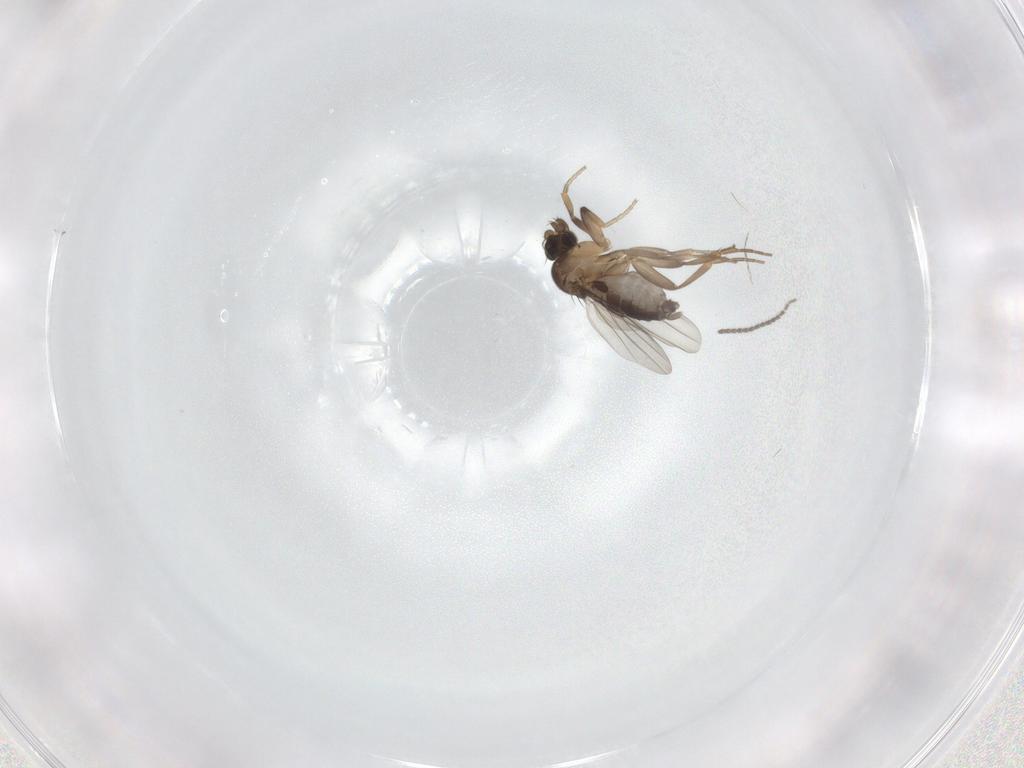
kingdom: Animalia
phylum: Arthropoda
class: Insecta
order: Diptera
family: Phoridae
